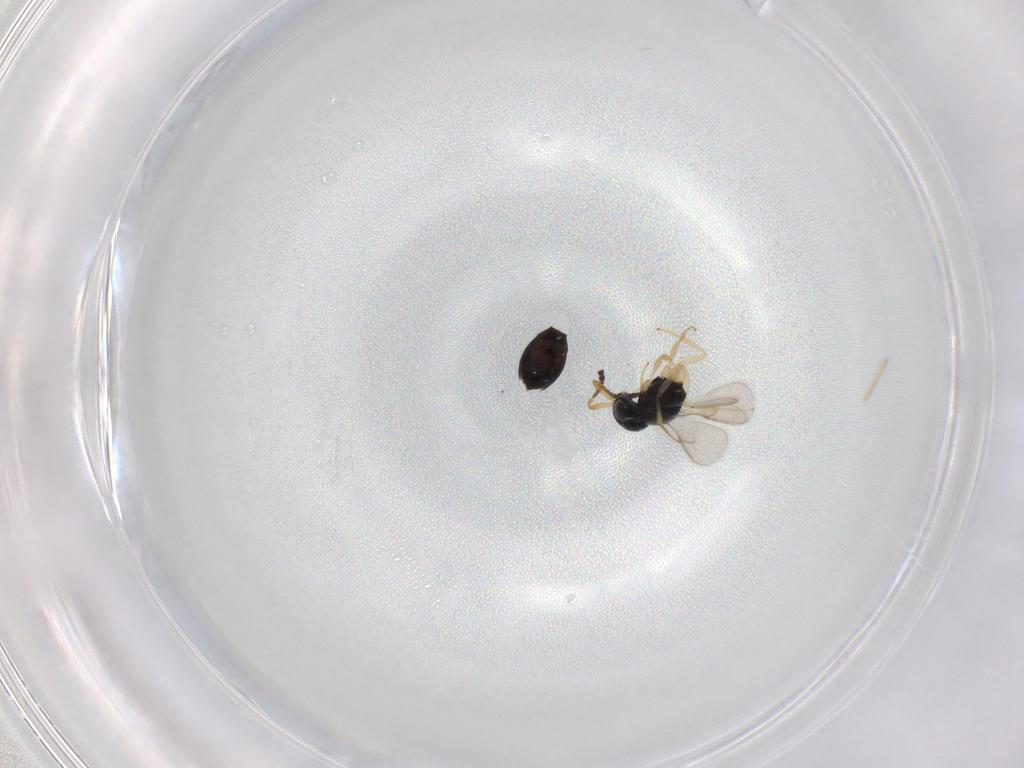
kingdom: Animalia
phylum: Arthropoda
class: Insecta
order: Hymenoptera
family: Scelionidae
